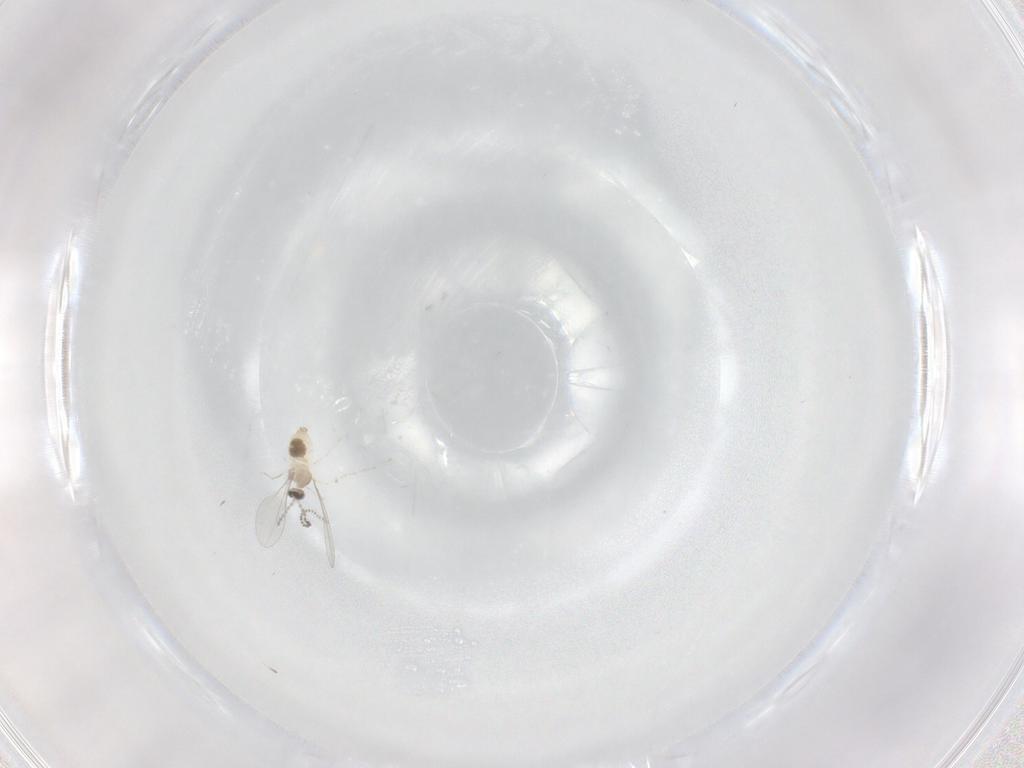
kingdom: Animalia
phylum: Arthropoda
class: Insecta
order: Diptera
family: Chironomidae
